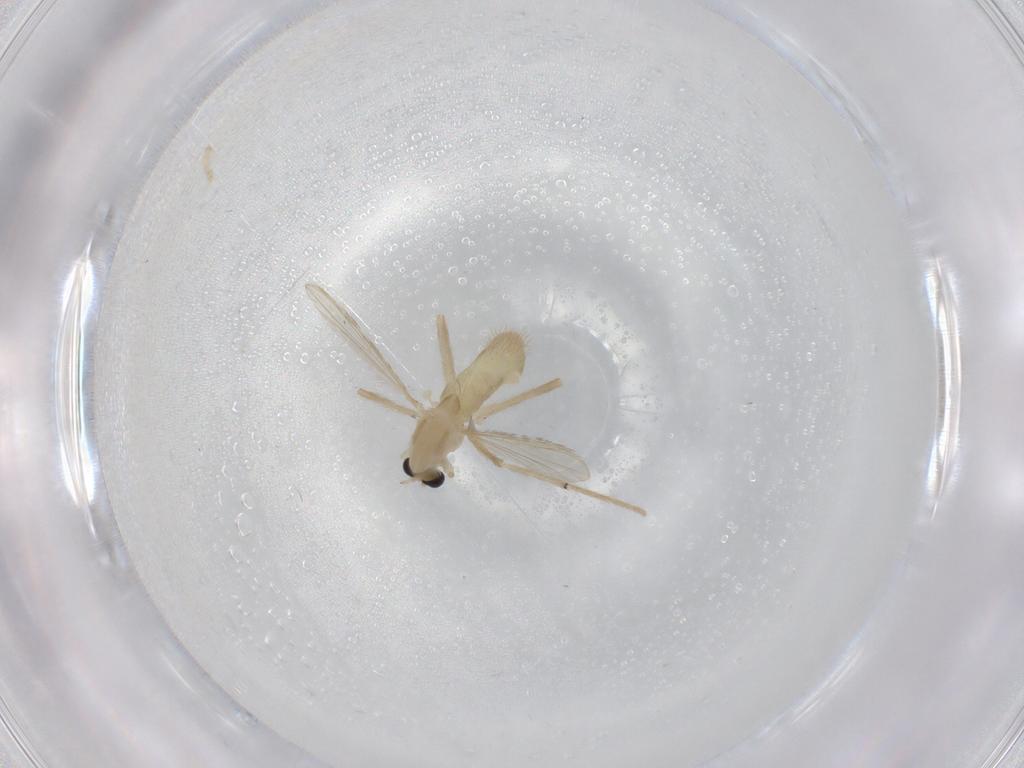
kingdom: Animalia
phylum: Arthropoda
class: Insecta
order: Diptera
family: Chironomidae
